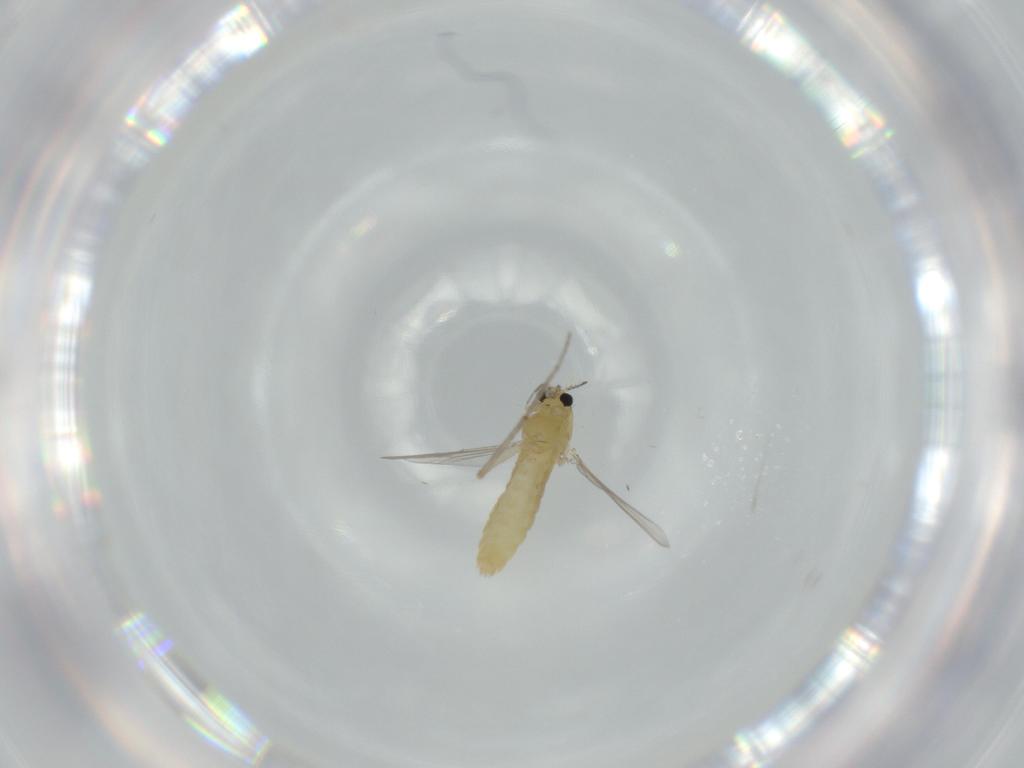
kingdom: Animalia
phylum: Arthropoda
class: Insecta
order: Diptera
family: Chironomidae
